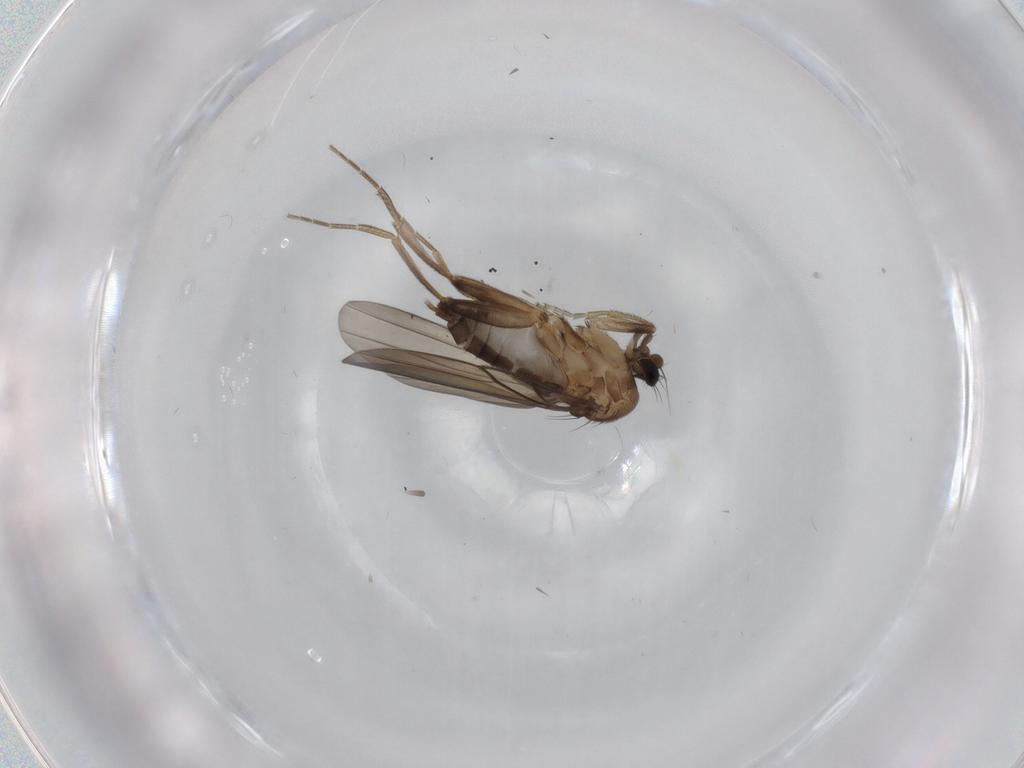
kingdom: Animalia
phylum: Arthropoda
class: Insecta
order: Diptera
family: Phoridae
